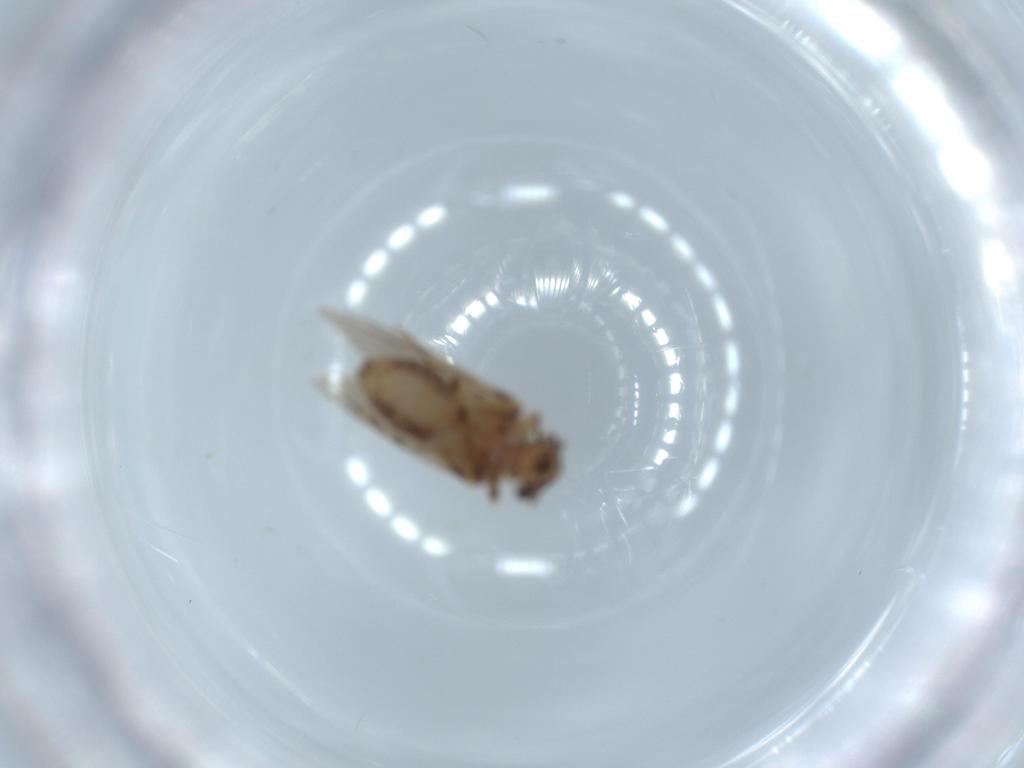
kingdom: Animalia
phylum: Arthropoda
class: Insecta
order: Psocodea
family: Lepidopsocidae
